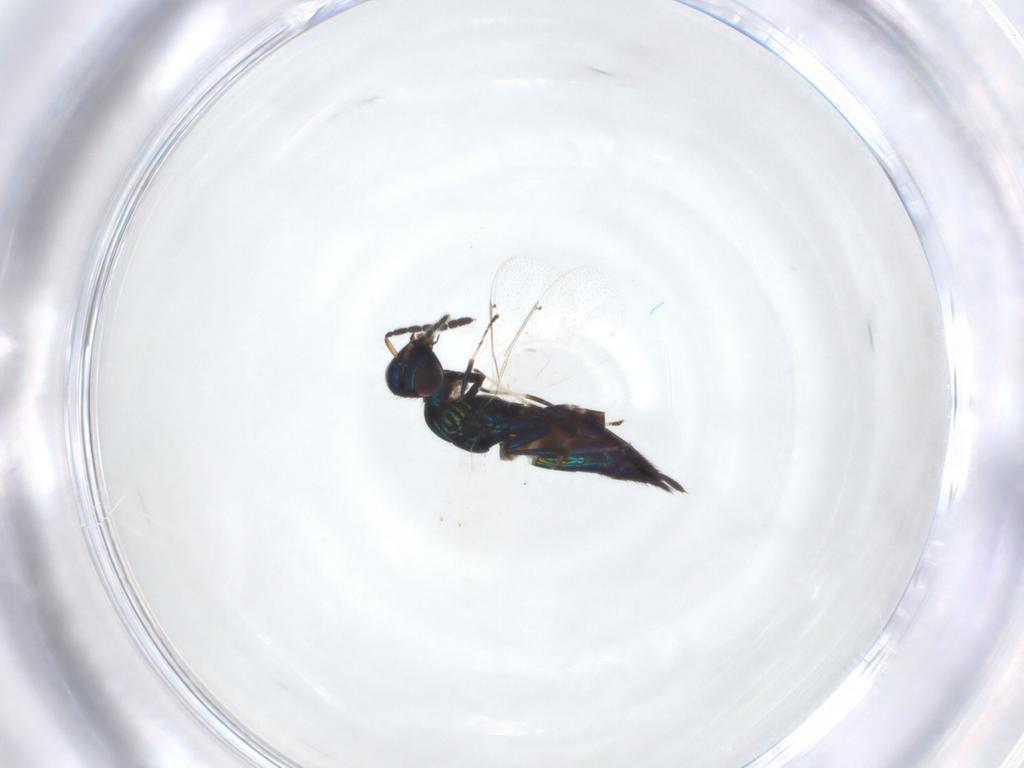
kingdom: Animalia
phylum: Arthropoda
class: Insecta
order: Hymenoptera
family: Eulophidae
